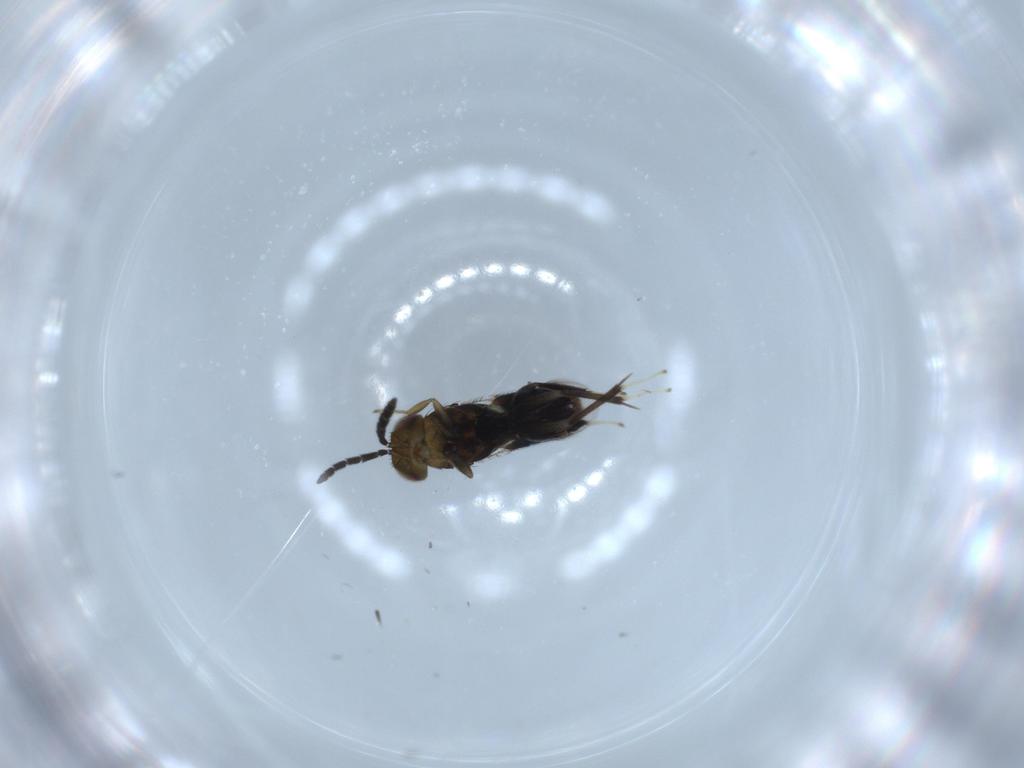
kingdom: Animalia
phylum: Arthropoda
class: Insecta
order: Hymenoptera
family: Aphelinidae
